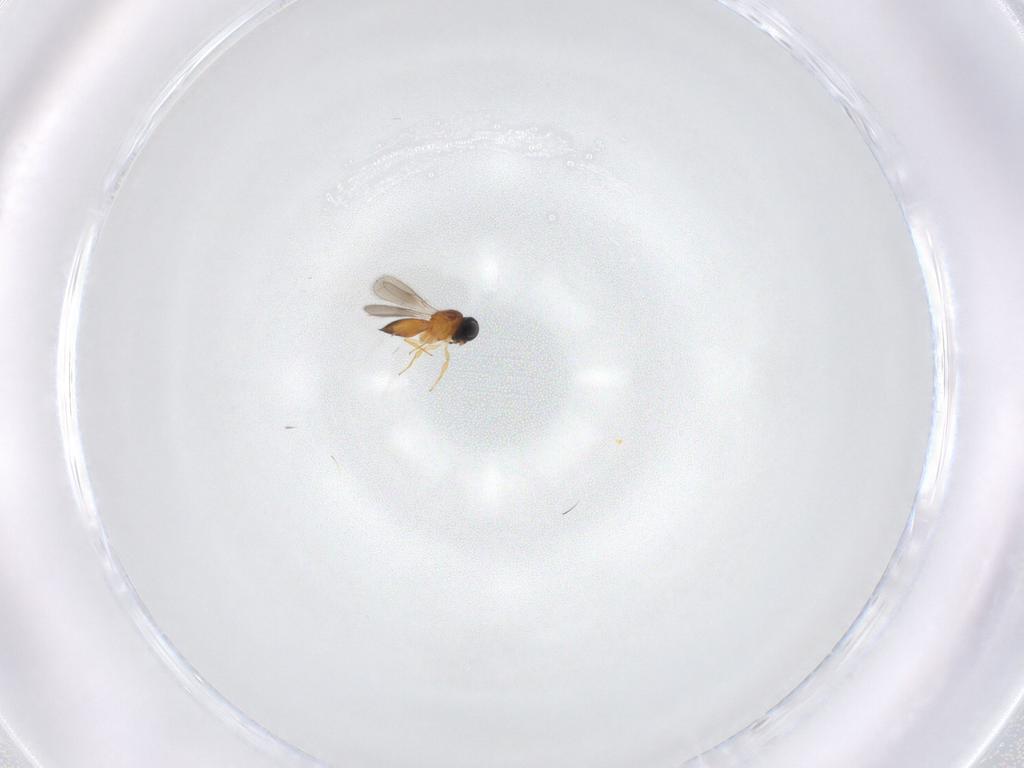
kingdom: Animalia
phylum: Arthropoda
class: Insecta
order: Hymenoptera
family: Scelionidae
